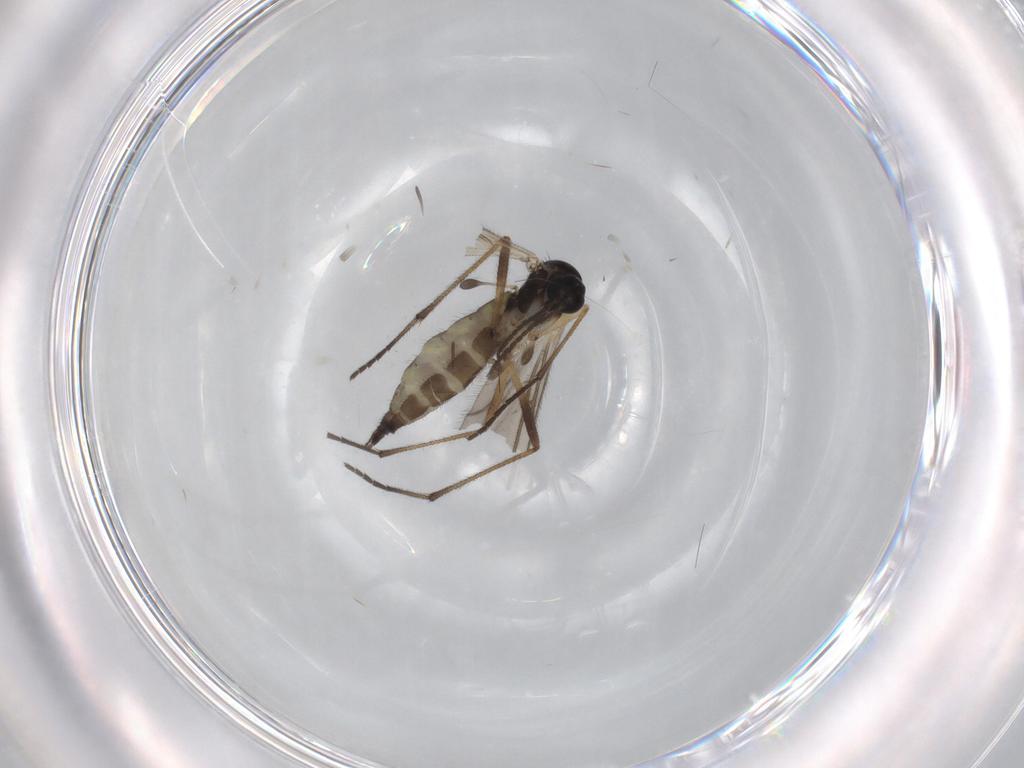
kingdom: Animalia
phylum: Arthropoda
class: Insecta
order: Diptera
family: Sciaridae
